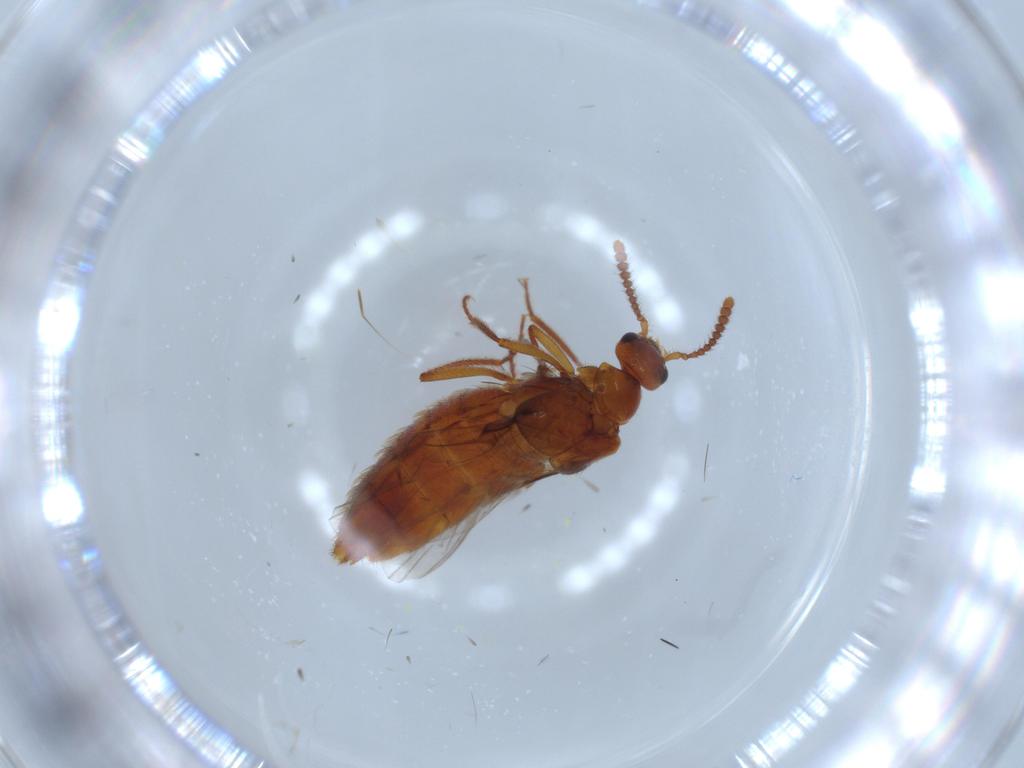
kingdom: Animalia
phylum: Arthropoda
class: Insecta
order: Coleoptera
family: Staphylinidae
